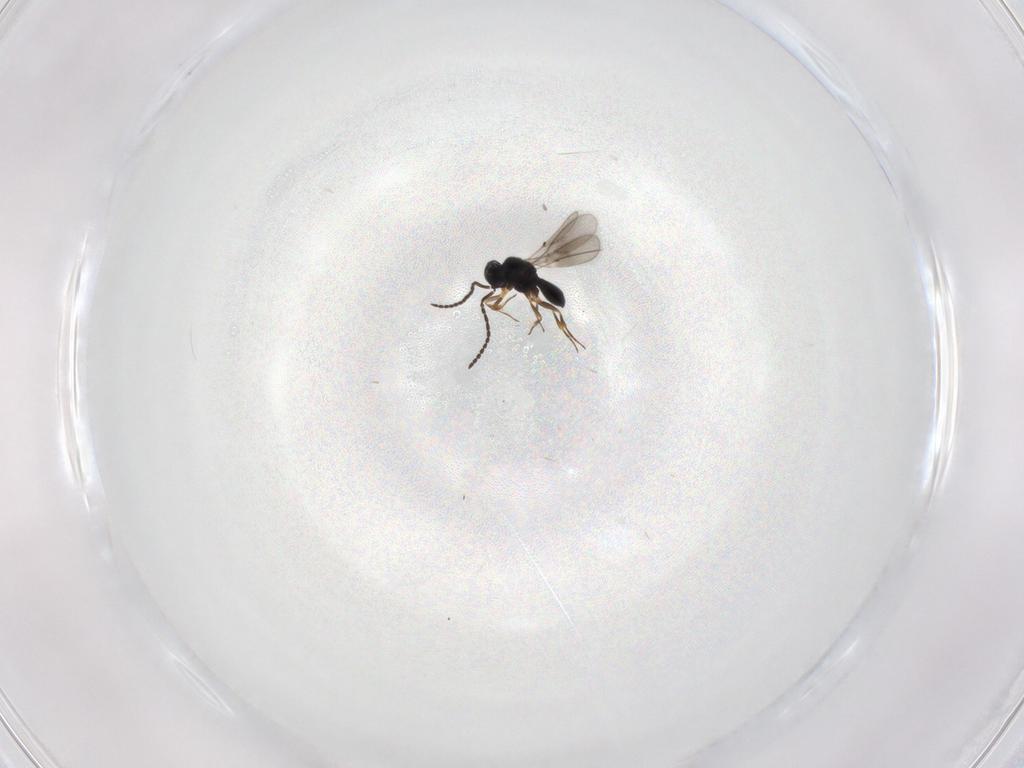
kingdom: Animalia
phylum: Arthropoda
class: Insecta
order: Hymenoptera
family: Scelionidae
